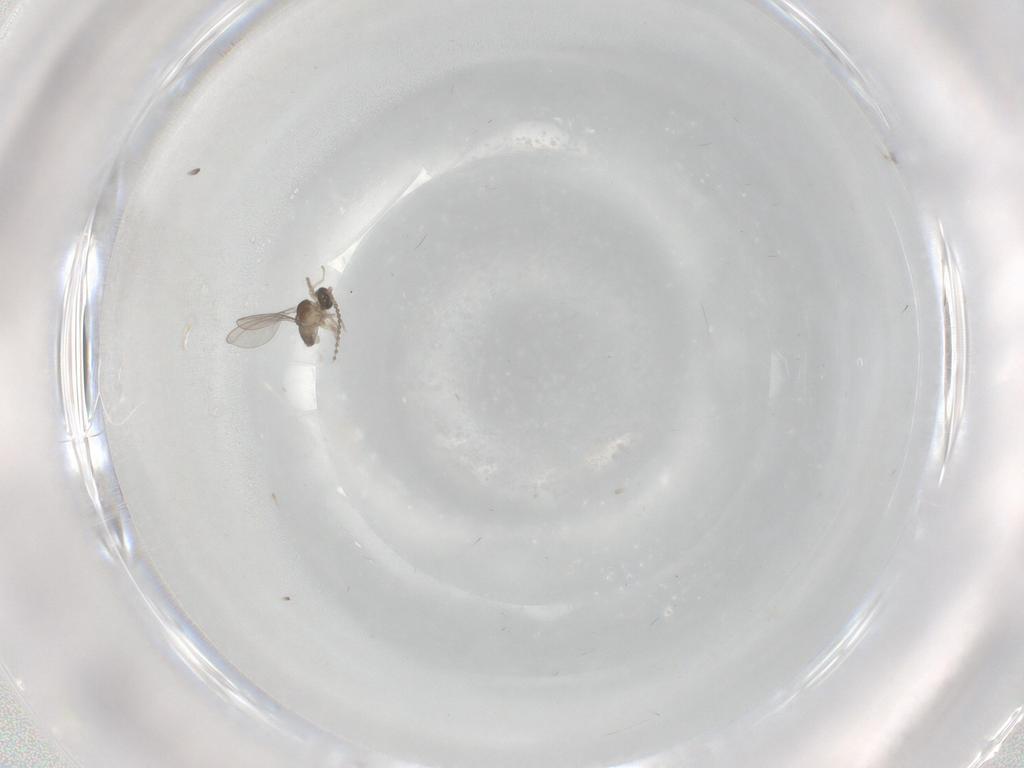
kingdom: Animalia
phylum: Arthropoda
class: Insecta
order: Diptera
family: Cecidomyiidae
